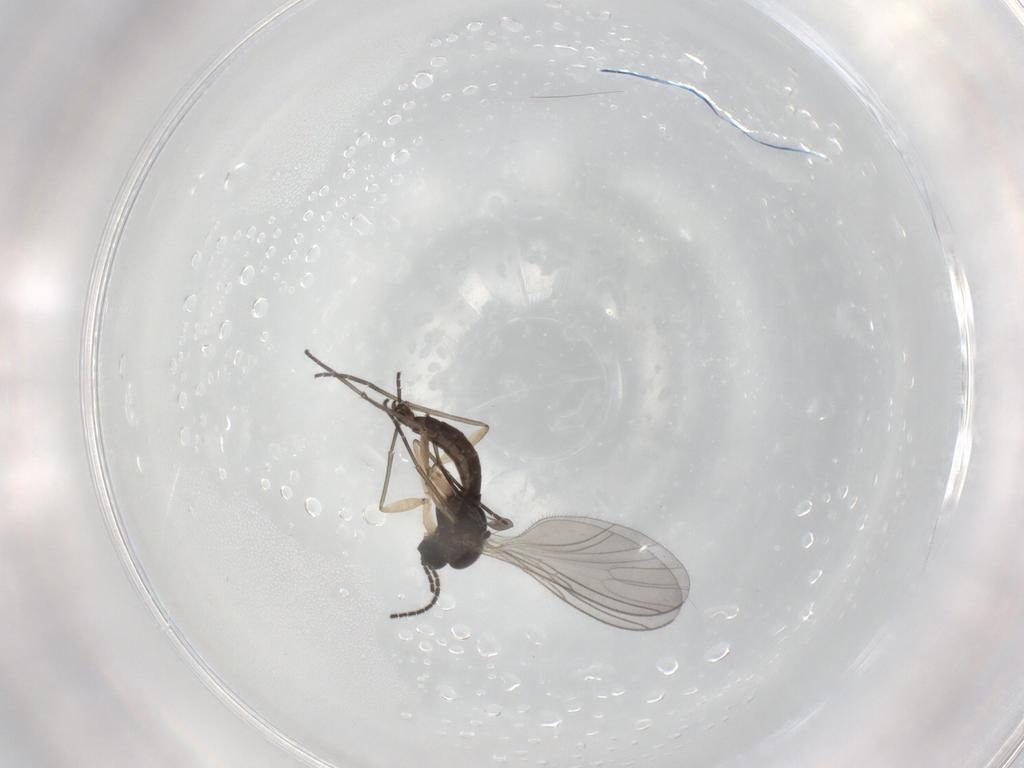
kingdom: Animalia
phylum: Arthropoda
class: Insecta
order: Diptera
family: Sciaridae
